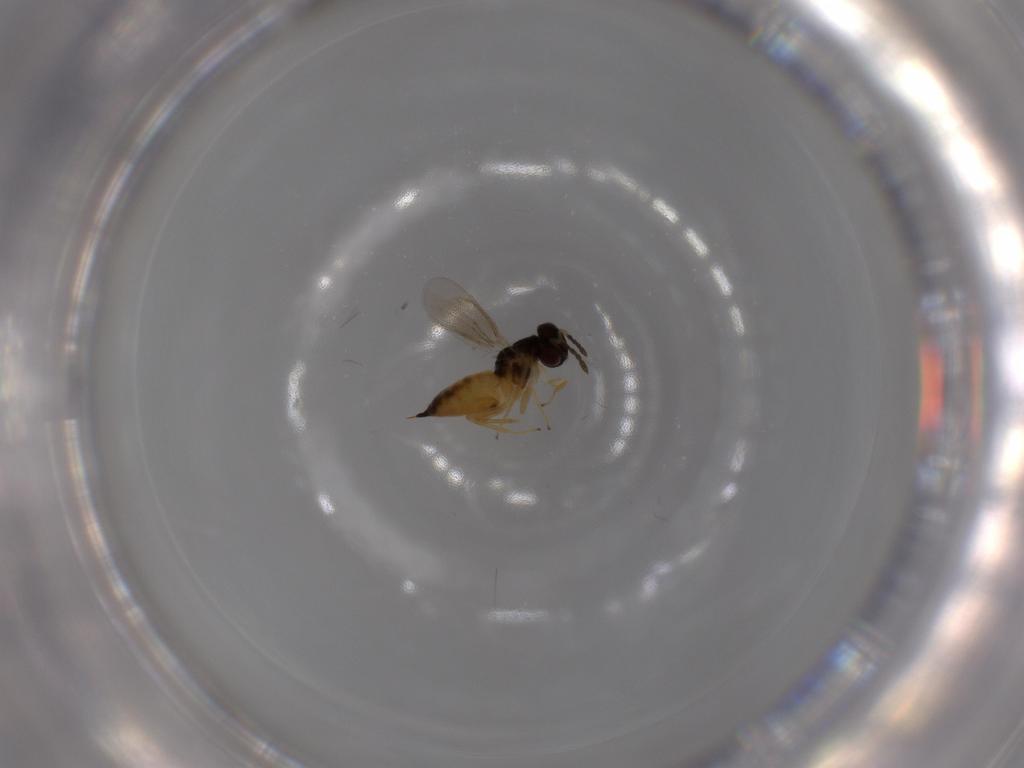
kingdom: Animalia
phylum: Arthropoda
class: Insecta
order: Hymenoptera
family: Eulophidae
